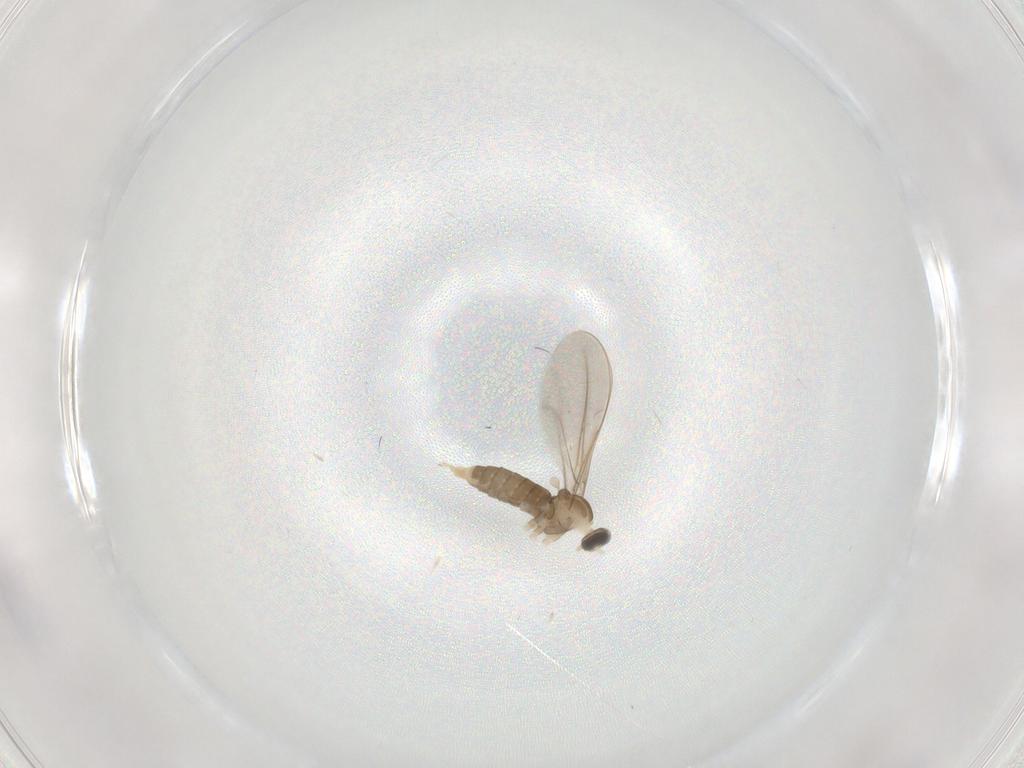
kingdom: Animalia
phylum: Arthropoda
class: Insecta
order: Diptera
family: Cecidomyiidae
